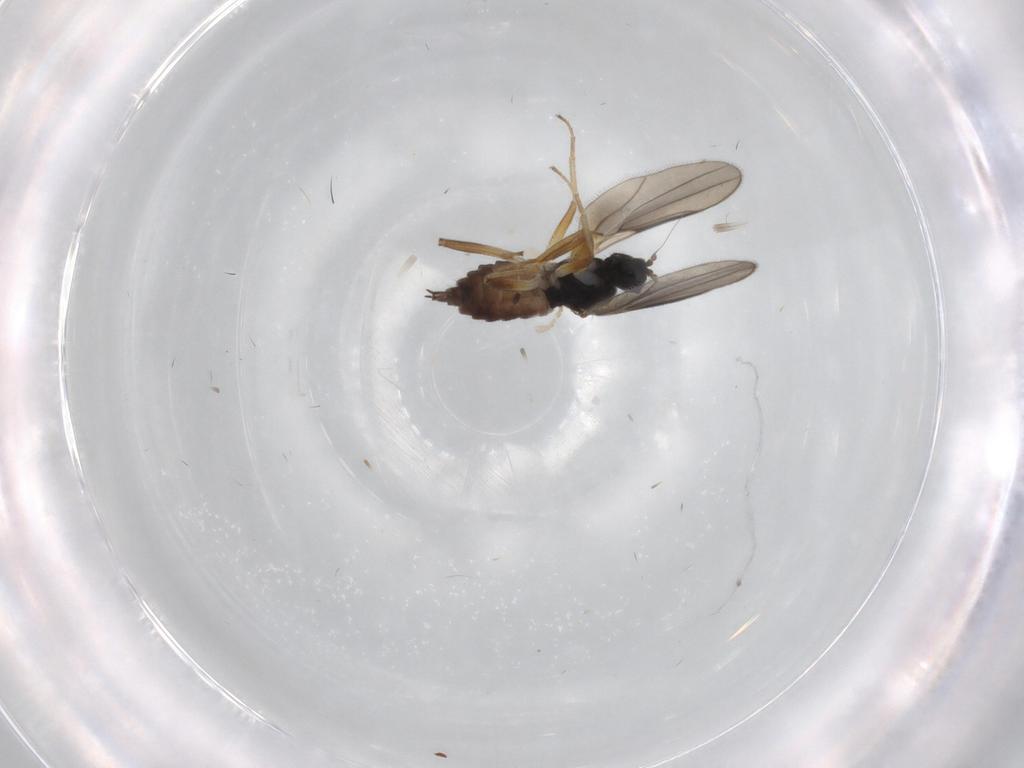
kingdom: Animalia
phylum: Arthropoda
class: Insecta
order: Diptera
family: Hybotidae
